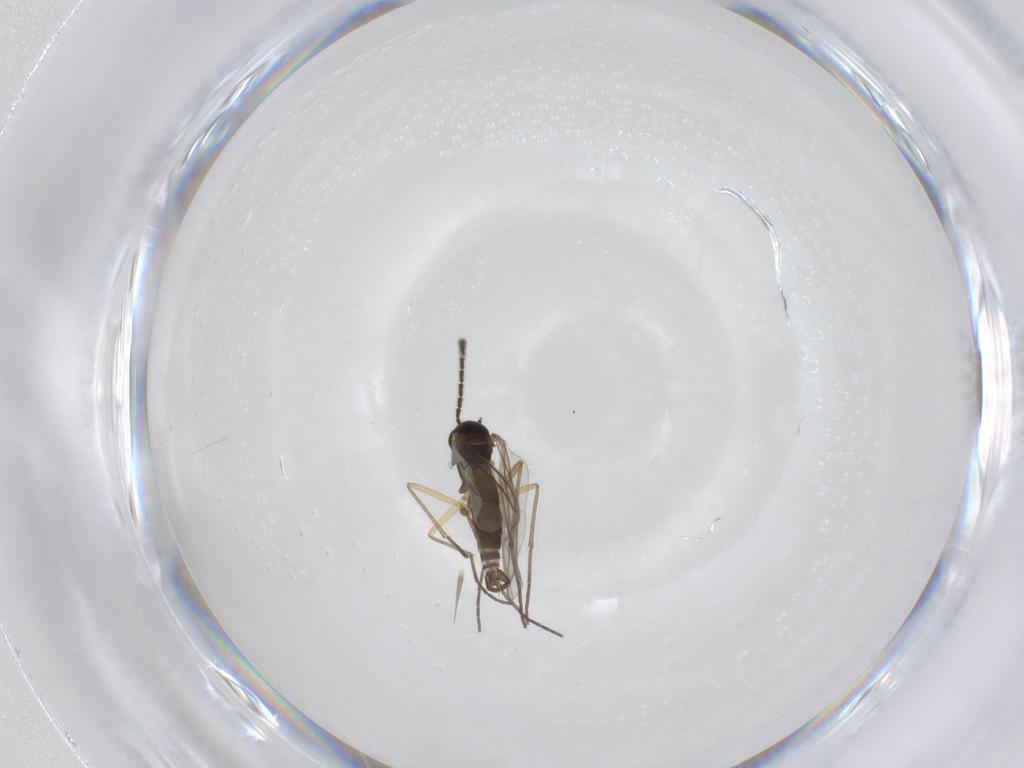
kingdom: Animalia
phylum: Arthropoda
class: Insecta
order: Diptera
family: Sciaridae
